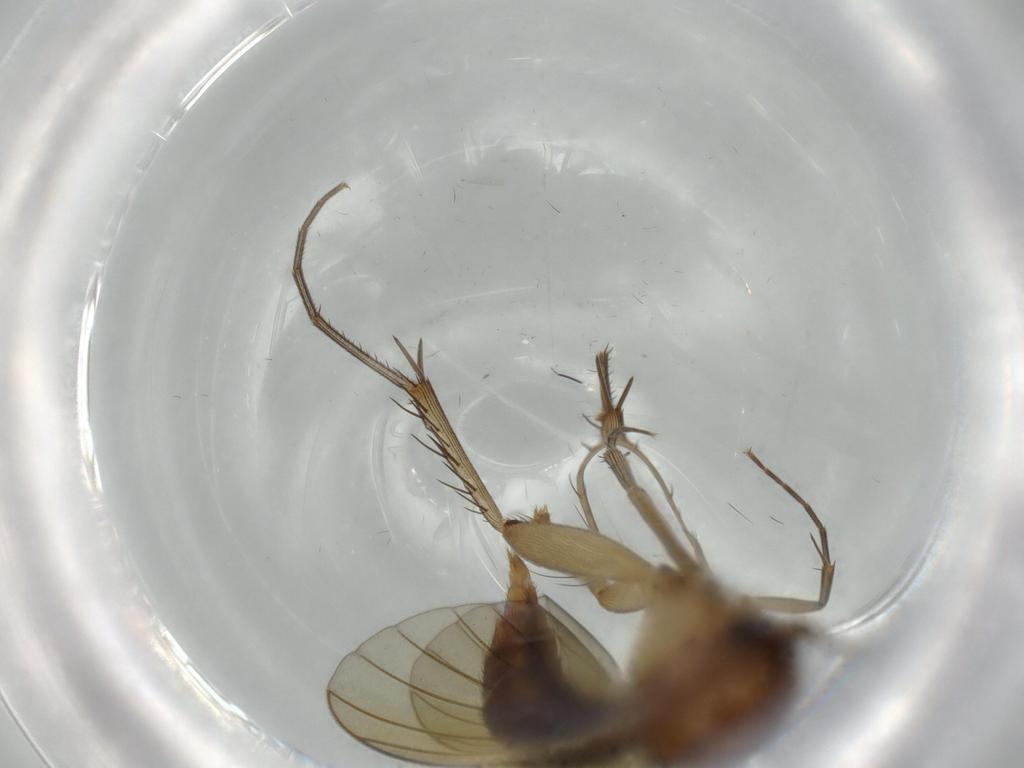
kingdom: Animalia
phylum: Arthropoda
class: Insecta
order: Diptera
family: Mycetophilidae
